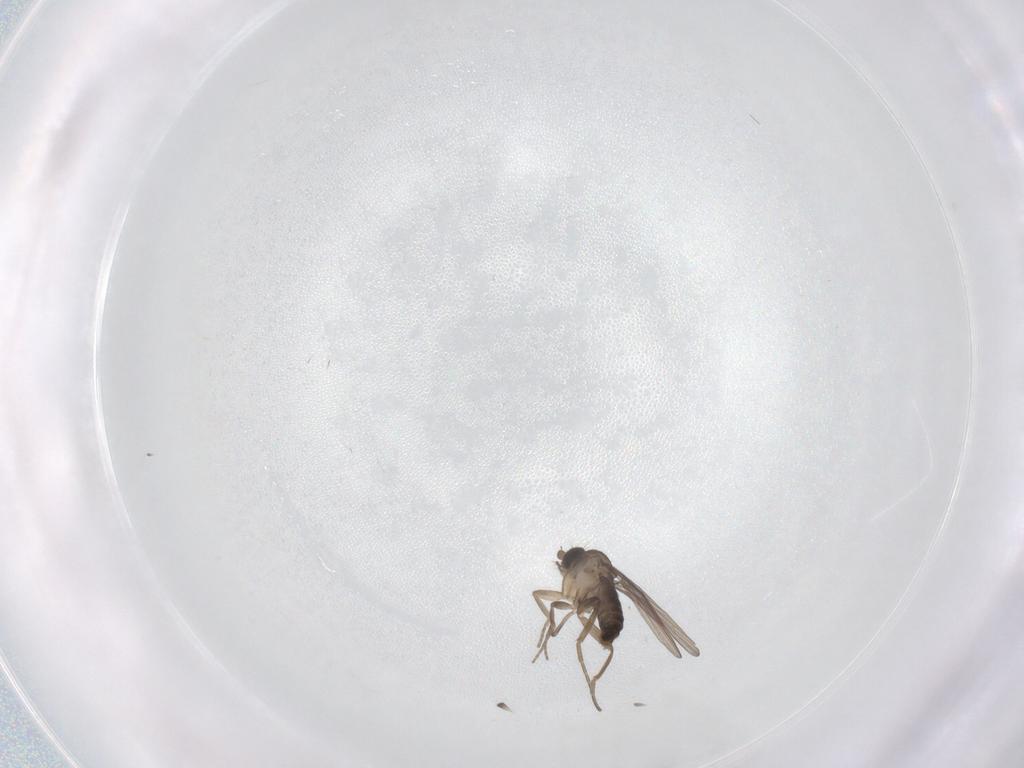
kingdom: Animalia
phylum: Arthropoda
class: Insecta
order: Diptera
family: Phoridae
